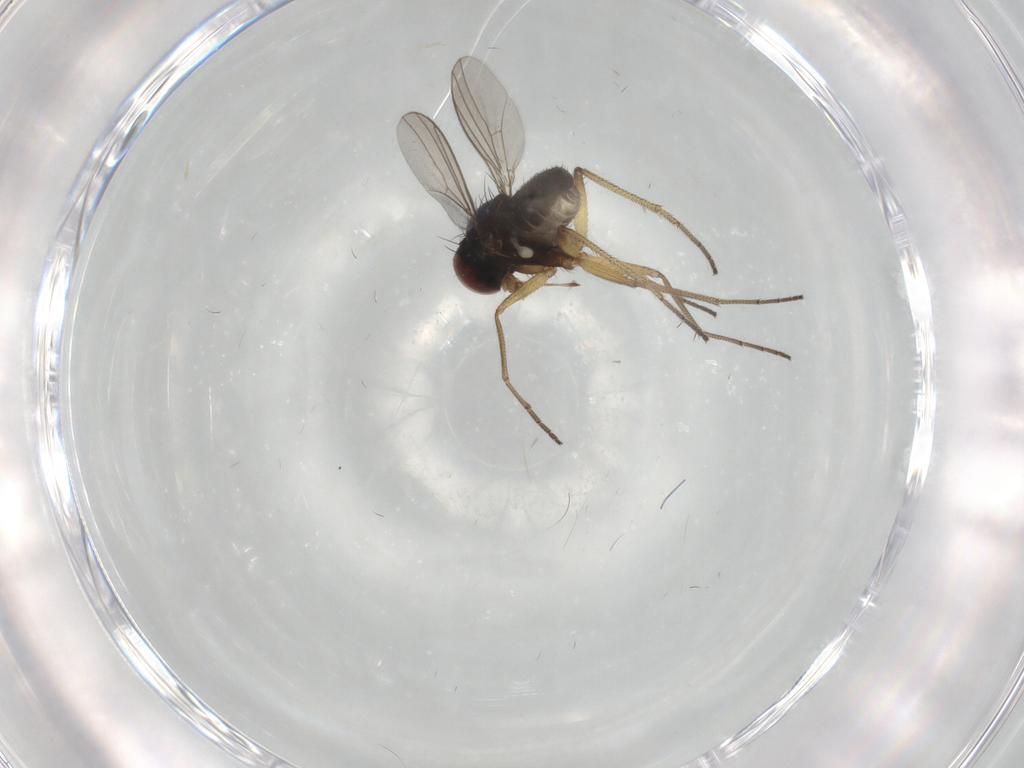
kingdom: Animalia
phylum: Arthropoda
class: Insecta
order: Diptera
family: Dolichopodidae
